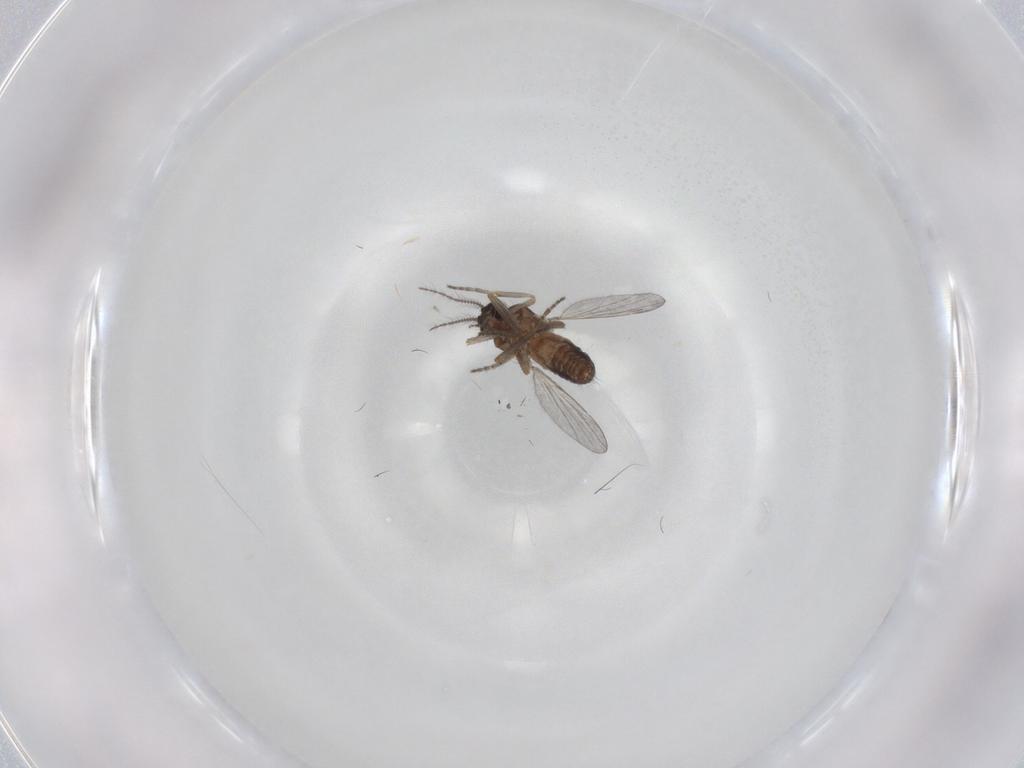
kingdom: Animalia
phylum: Arthropoda
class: Insecta
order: Diptera
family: Ceratopogonidae
